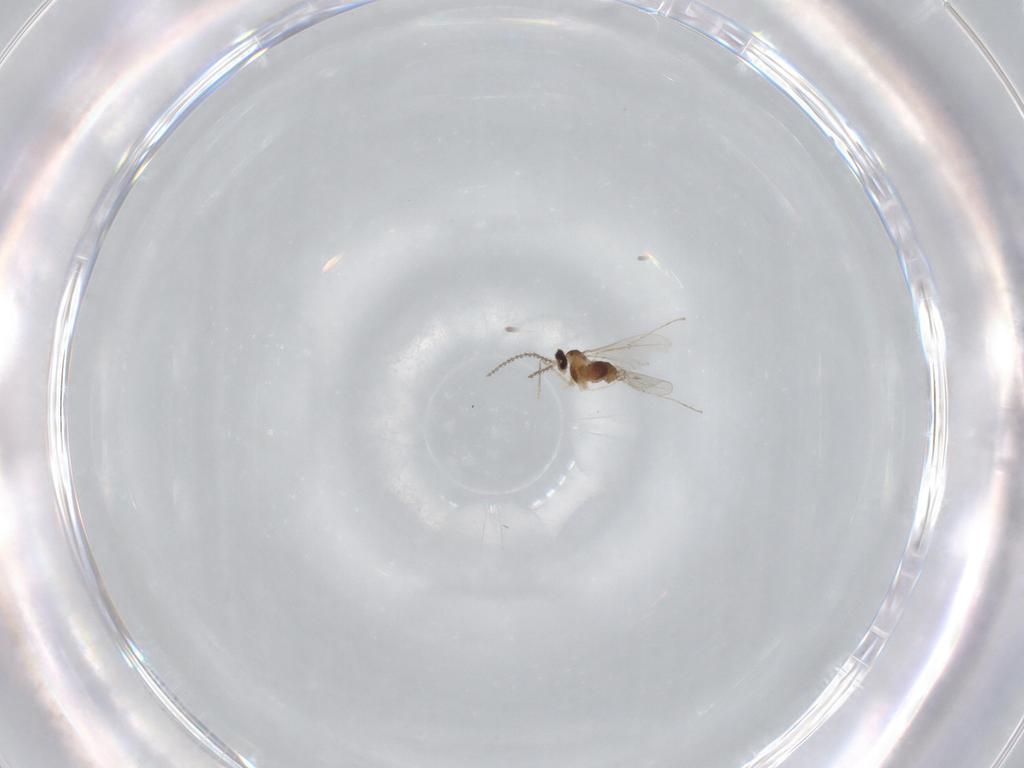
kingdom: Animalia
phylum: Arthropoda
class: Insecta
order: Diptera
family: Cecidomyiidae
